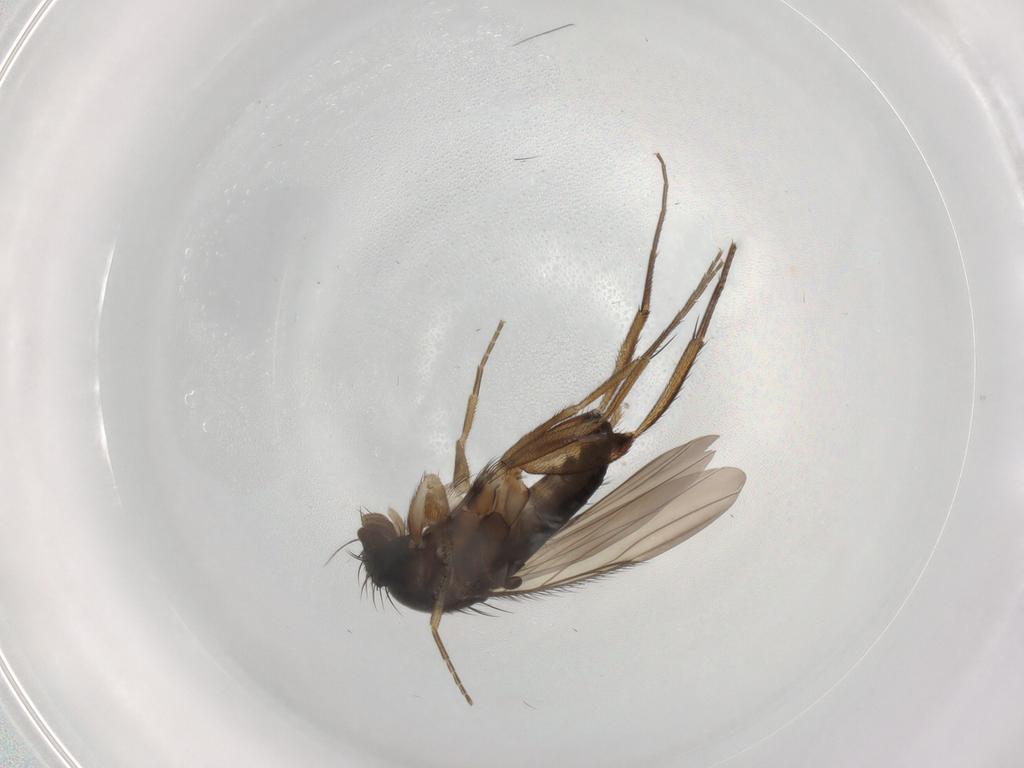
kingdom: Animalia
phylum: Arthropoda
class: Insecta
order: Diptera
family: Phoridae
